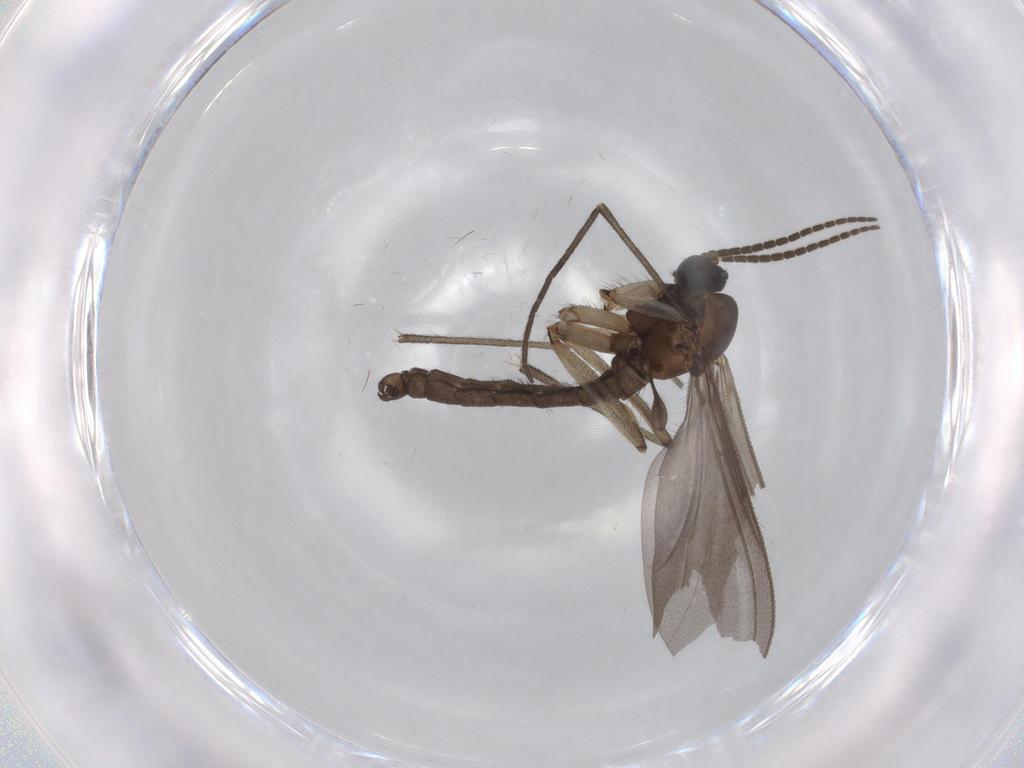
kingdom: Animalia
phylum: Arthropoda
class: Insecta
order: Diptera
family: Sciaridae
